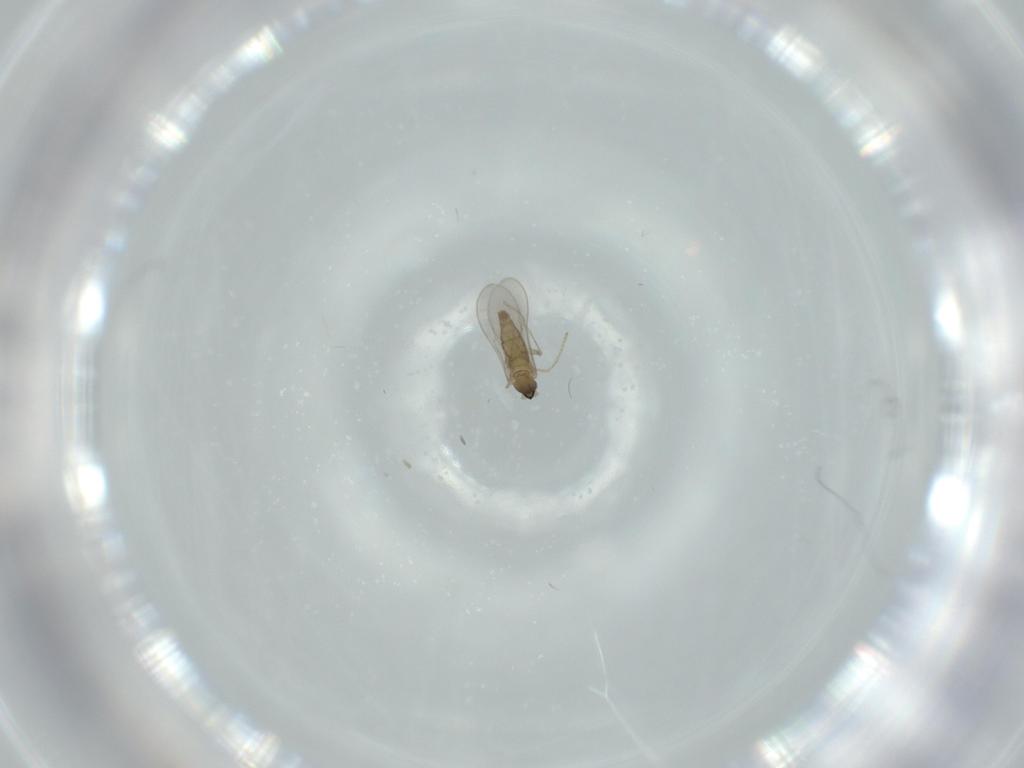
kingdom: Animalia
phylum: Arthropoda
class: Insecta
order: Diptera
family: Cecidomyiidae
